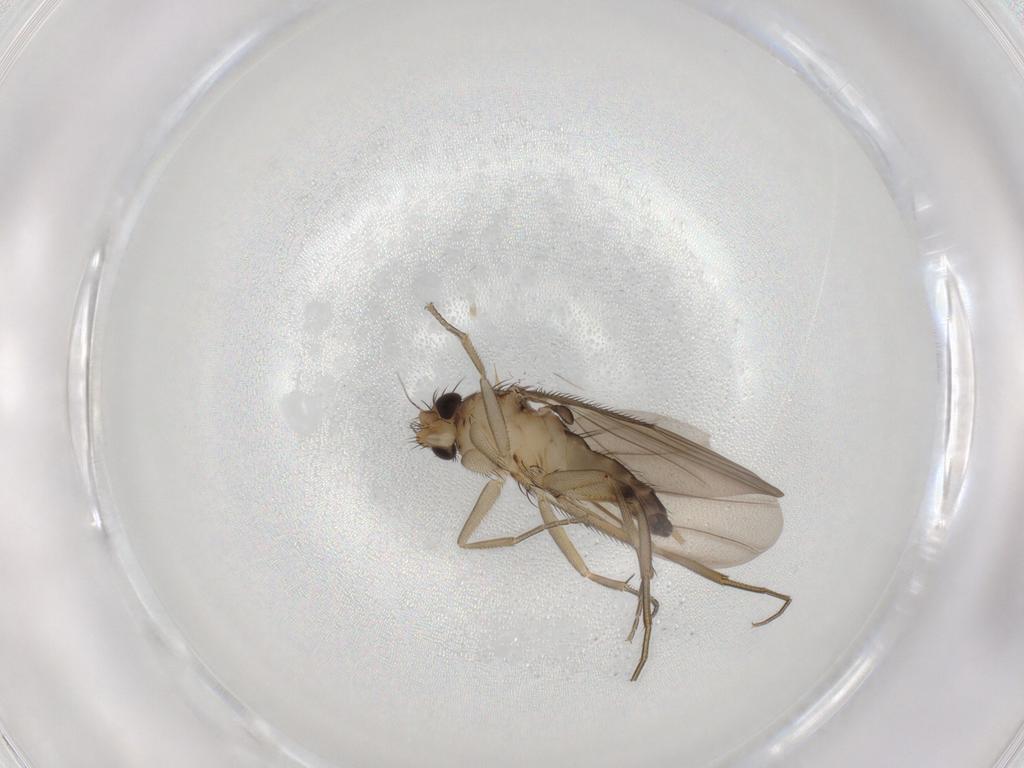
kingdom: Animalia
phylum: Arthropoda
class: Insecta
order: Diptera
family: Phoridae
